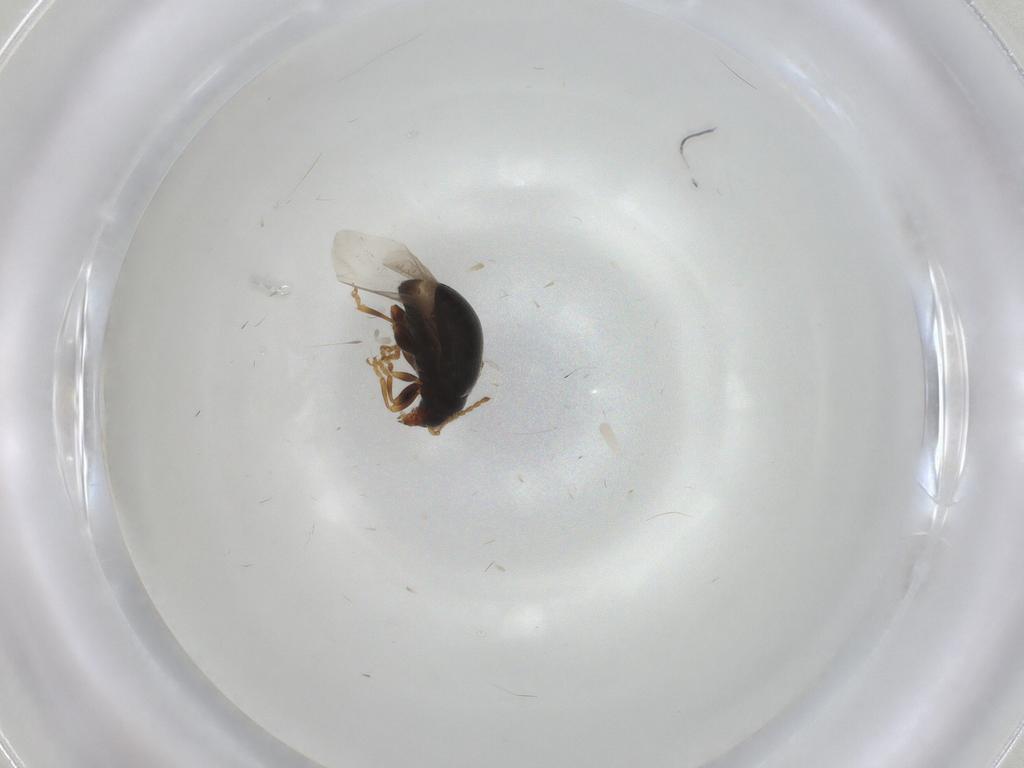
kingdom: Animalia
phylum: Arthropoda
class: Insecta
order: Coleoptera
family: Chrysomelidae
